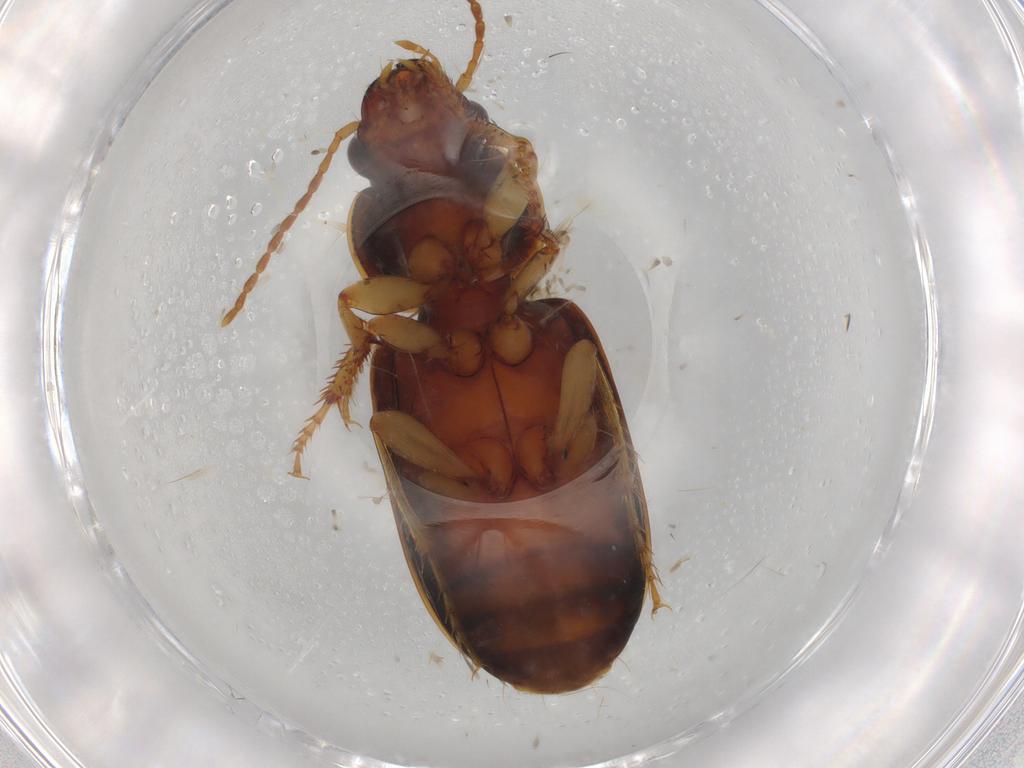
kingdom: Animalia
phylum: Arthropoda
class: Insecta
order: Coleoptera
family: Carabidae
